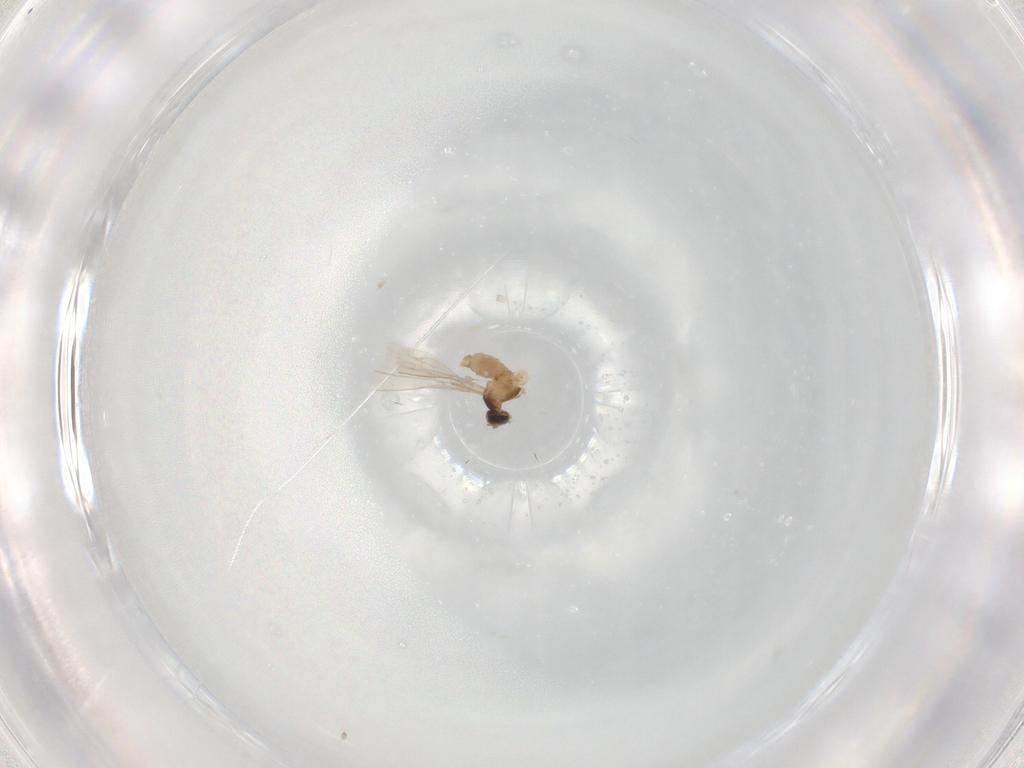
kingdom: Animalia
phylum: Arthropoda
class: Insecta
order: Diptera
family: Cecidomyiidae
